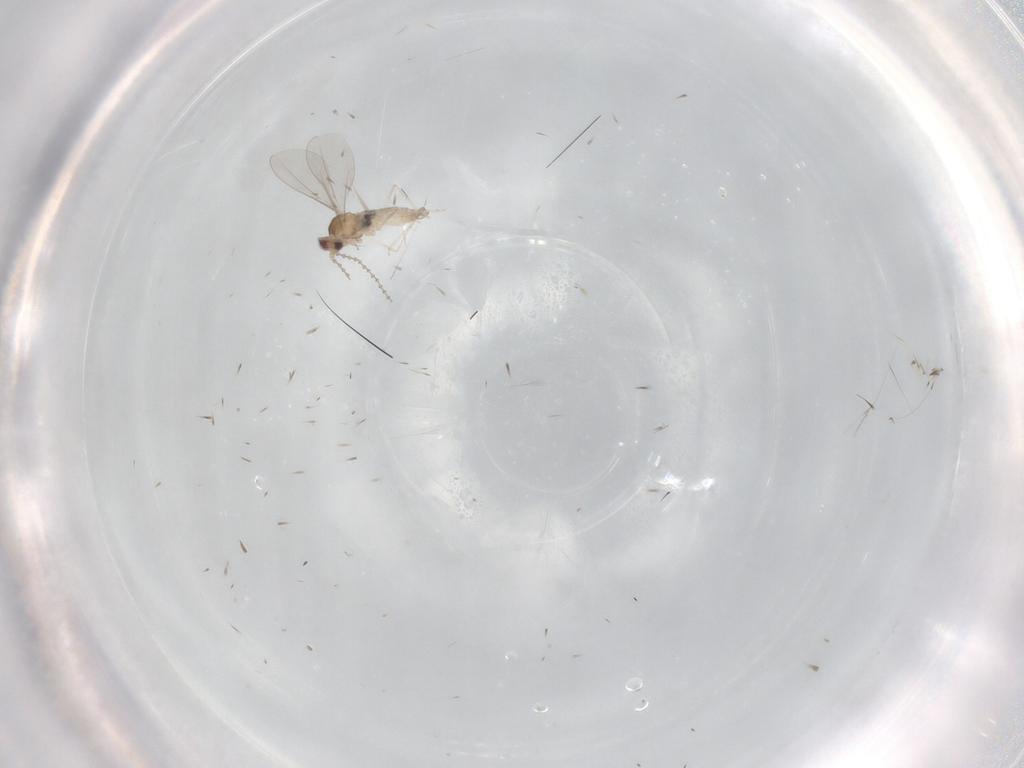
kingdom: Animalia
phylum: Arthropoda
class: Insecta
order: Diptera
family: Cecidomyiidae
